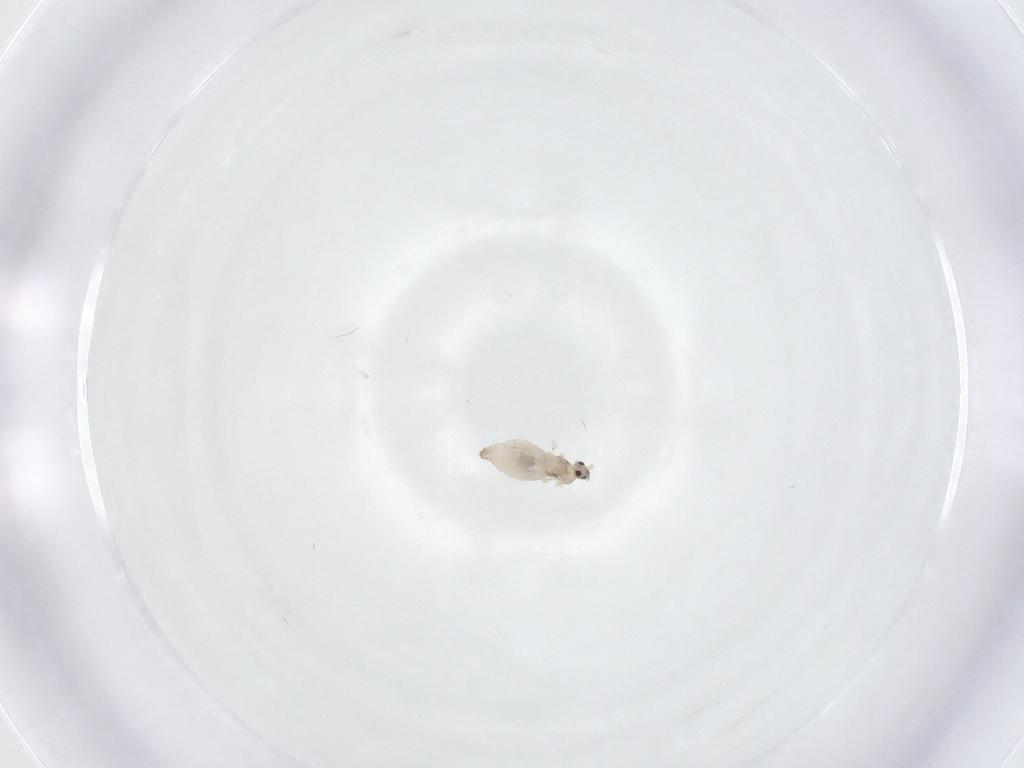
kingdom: Animalia
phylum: Arthropoda
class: Insecta
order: Diptera
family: Cecidomyiidae
